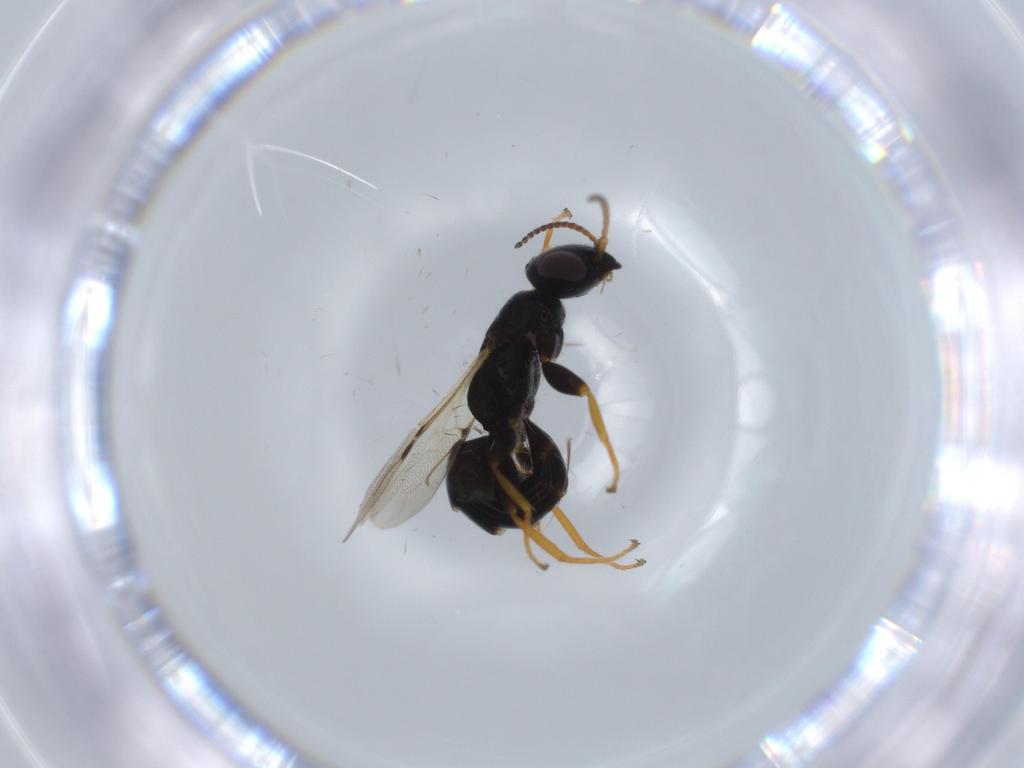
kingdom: Animalia
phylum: Arthropoda
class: Insecta
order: Hymenoptera
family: Bethylidae
